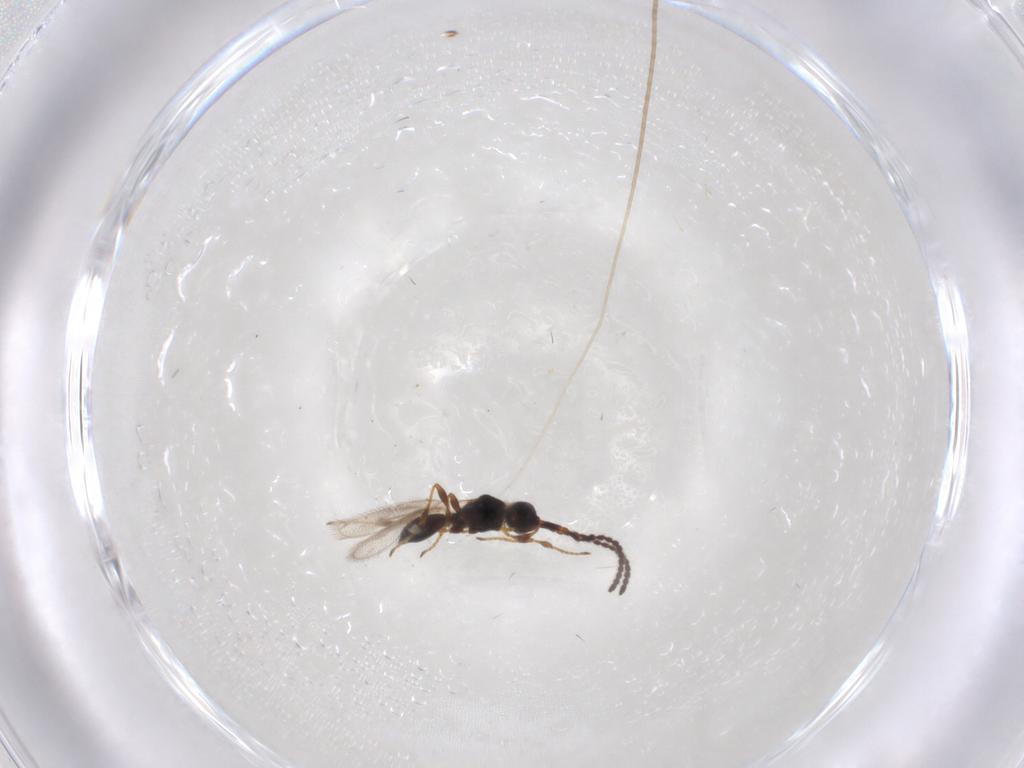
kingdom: Animalia
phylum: Arthropoda
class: Insecta
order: Hymenoptera
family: Diapriidae
